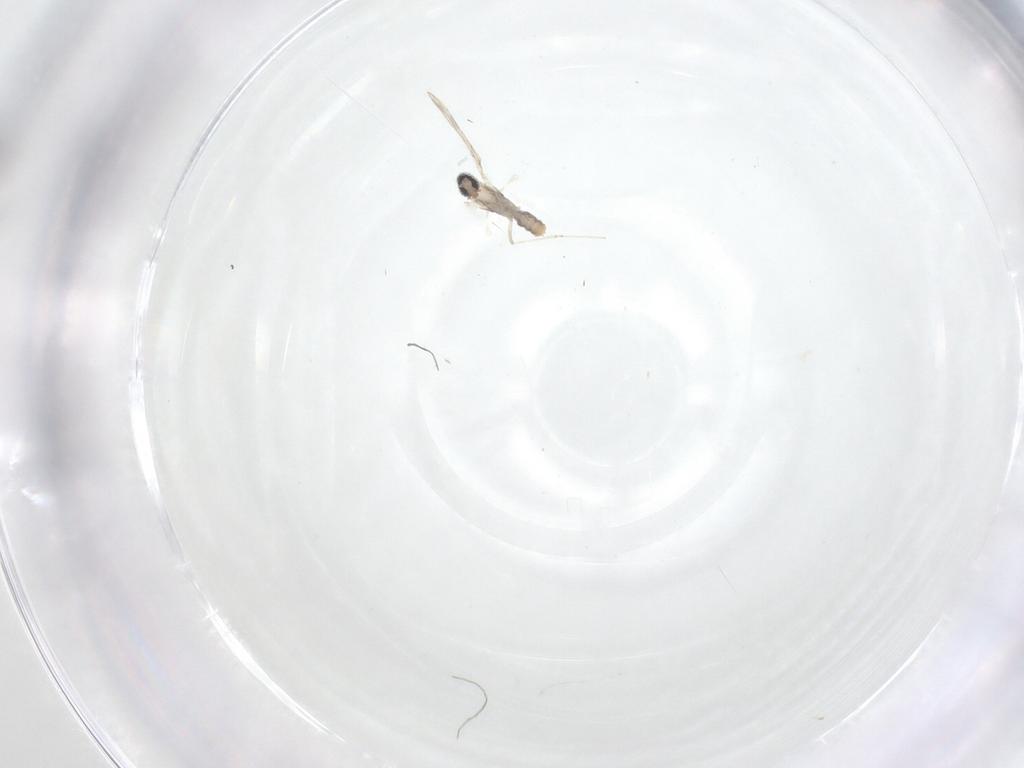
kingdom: Animalia
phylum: Arthropoda
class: Insecta
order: Diptera
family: Cecidomyiidae
